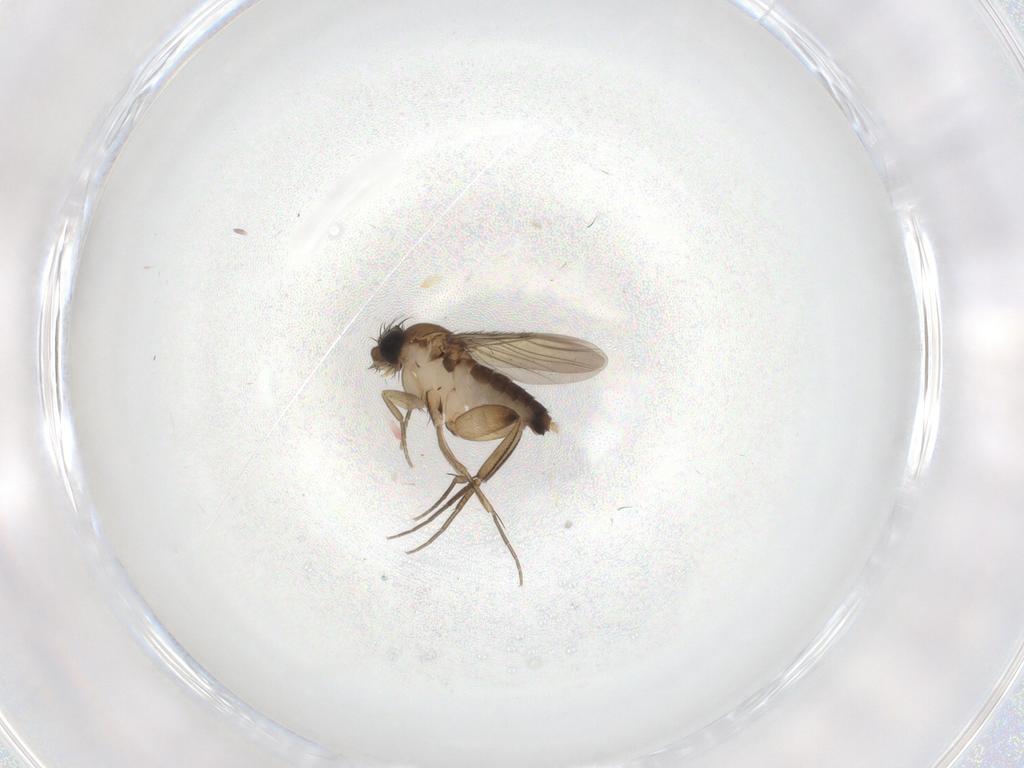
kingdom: Animalia
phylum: Arthropoda
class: Insecta
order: Diptera
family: Phoridae
